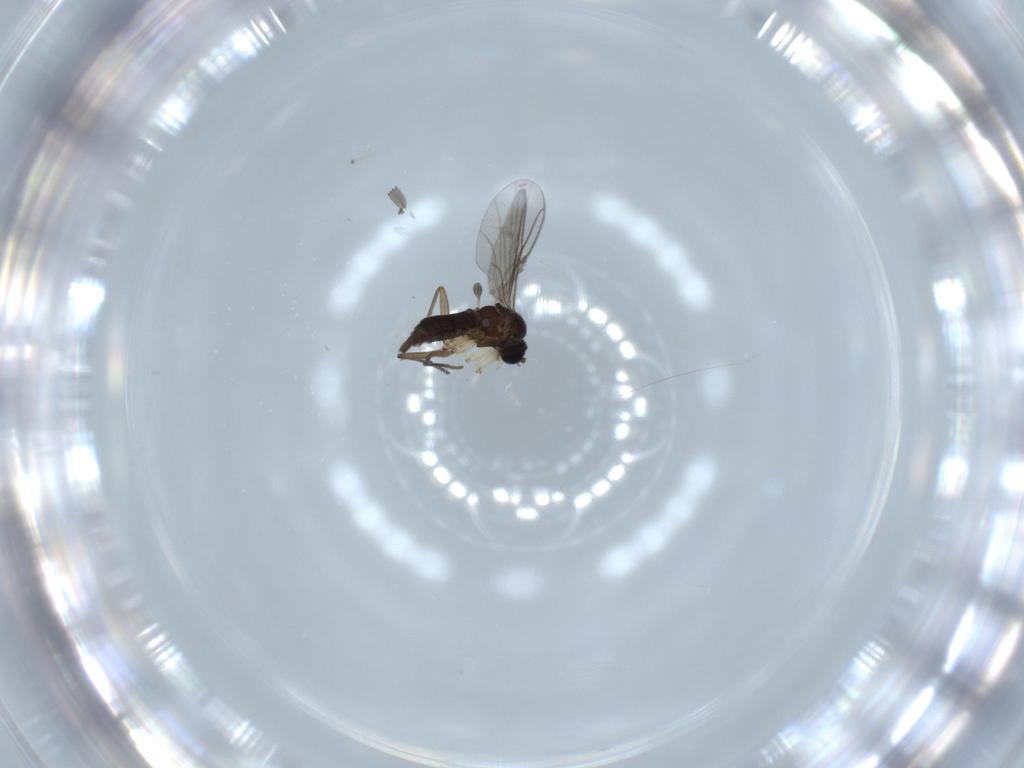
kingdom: Animalia
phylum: Arthropoda
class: Insecta
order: Diptera
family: Sciaridae
